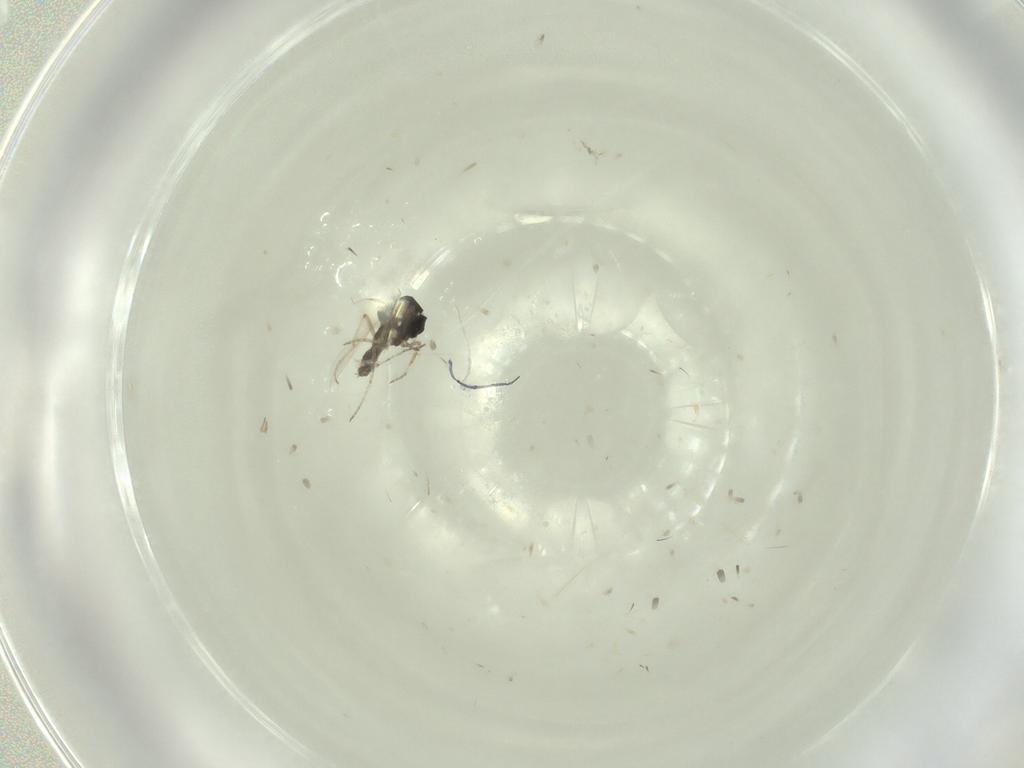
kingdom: Animalia
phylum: Arthropoda
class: Insecta
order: Diptera
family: Ceratopogonidae
